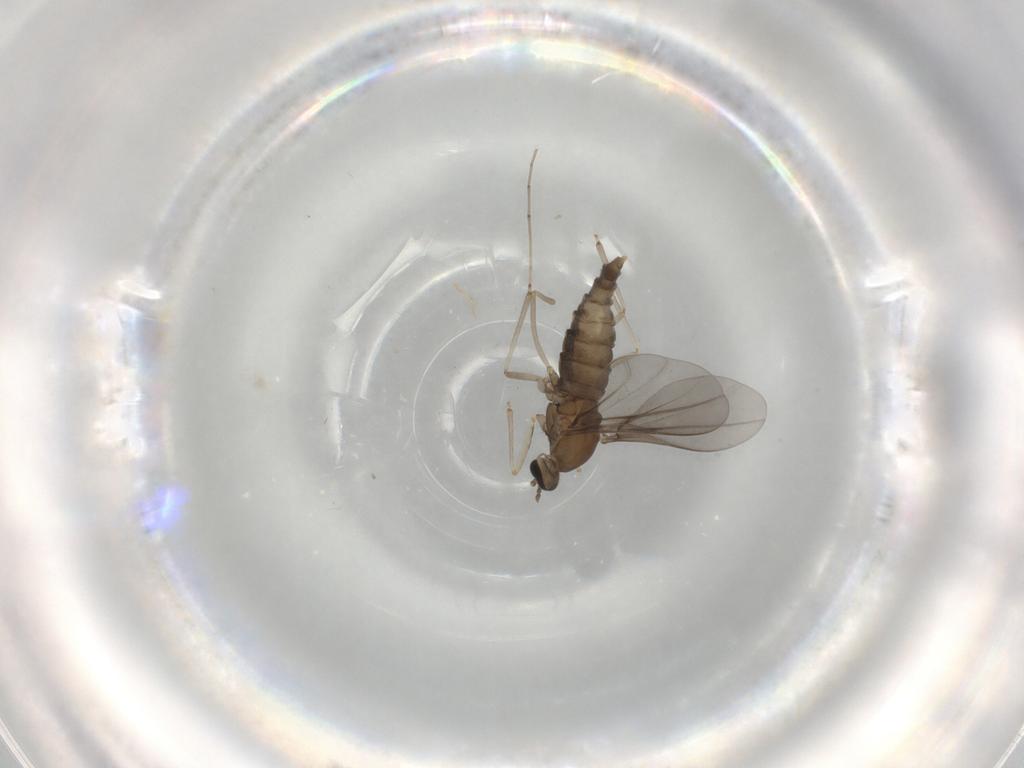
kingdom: Animalia
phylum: Arthropoda
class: Insecta
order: Diptera
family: Cecidomyiidae
